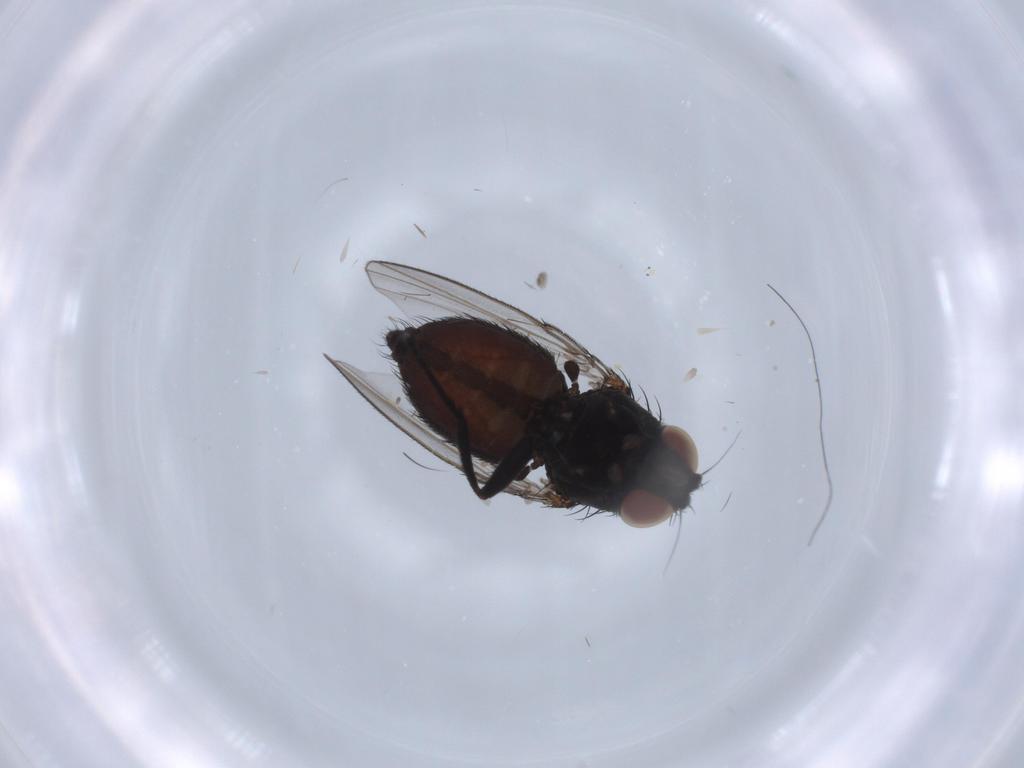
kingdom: Animalia
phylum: Arthropoda
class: Insecta
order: Diptera
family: Milichiidae
